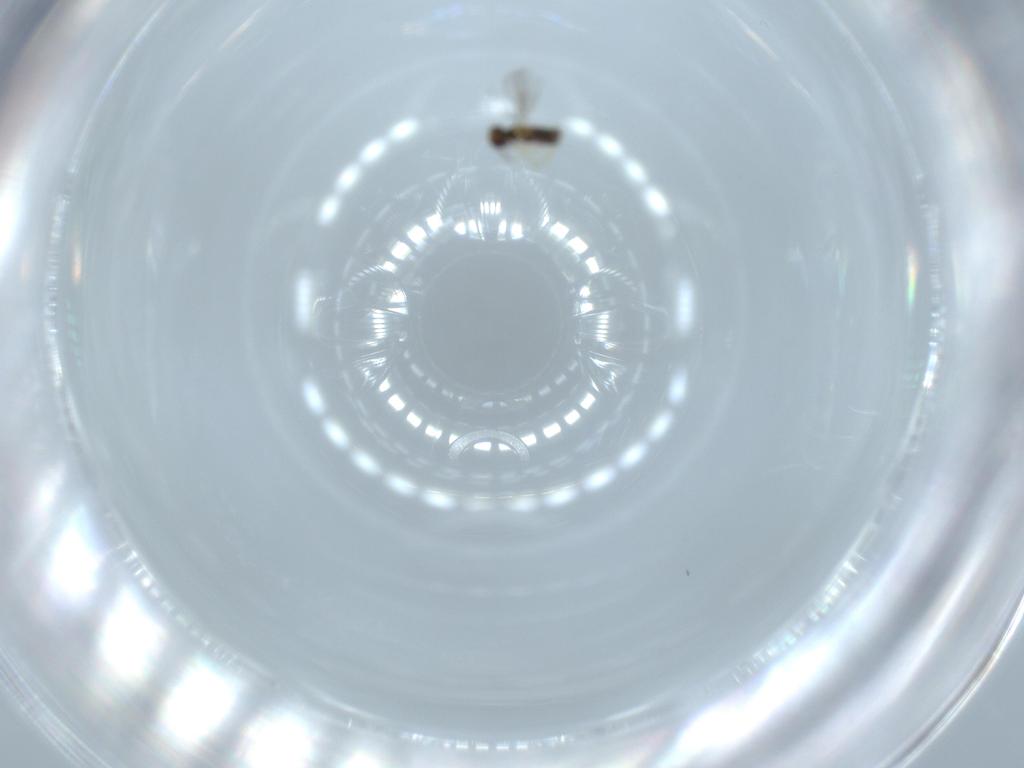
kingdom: Animalia
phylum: Arthropoda
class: Insecta
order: Hymenoptera
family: Aphelinidae
